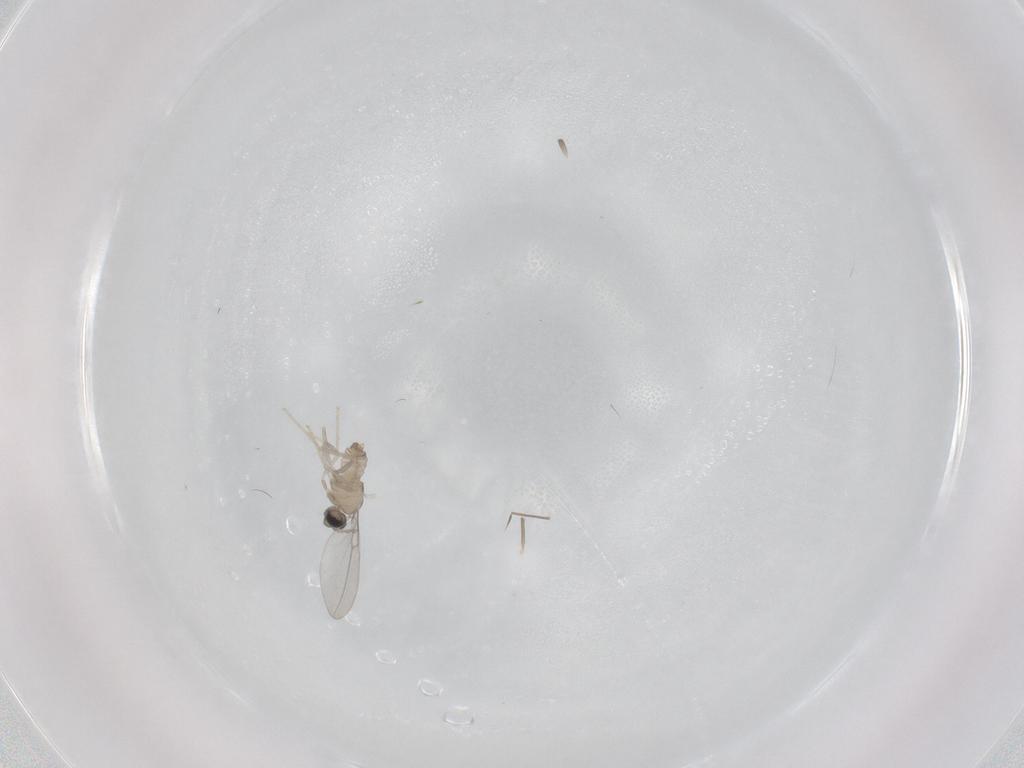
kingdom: Animalia
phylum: Arthropoda
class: Insecta
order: Diptera
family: Cecidomyiidae
